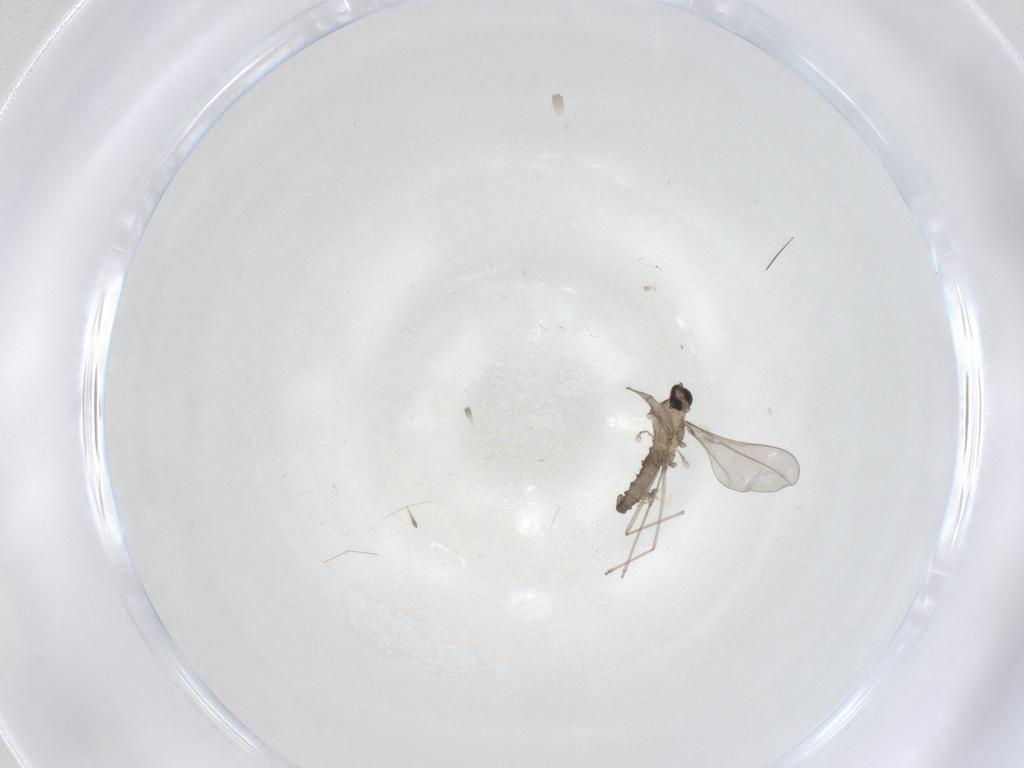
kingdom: Animalia
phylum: Arthropoda
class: Insecta
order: Diptera
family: Cecidomyiidae
